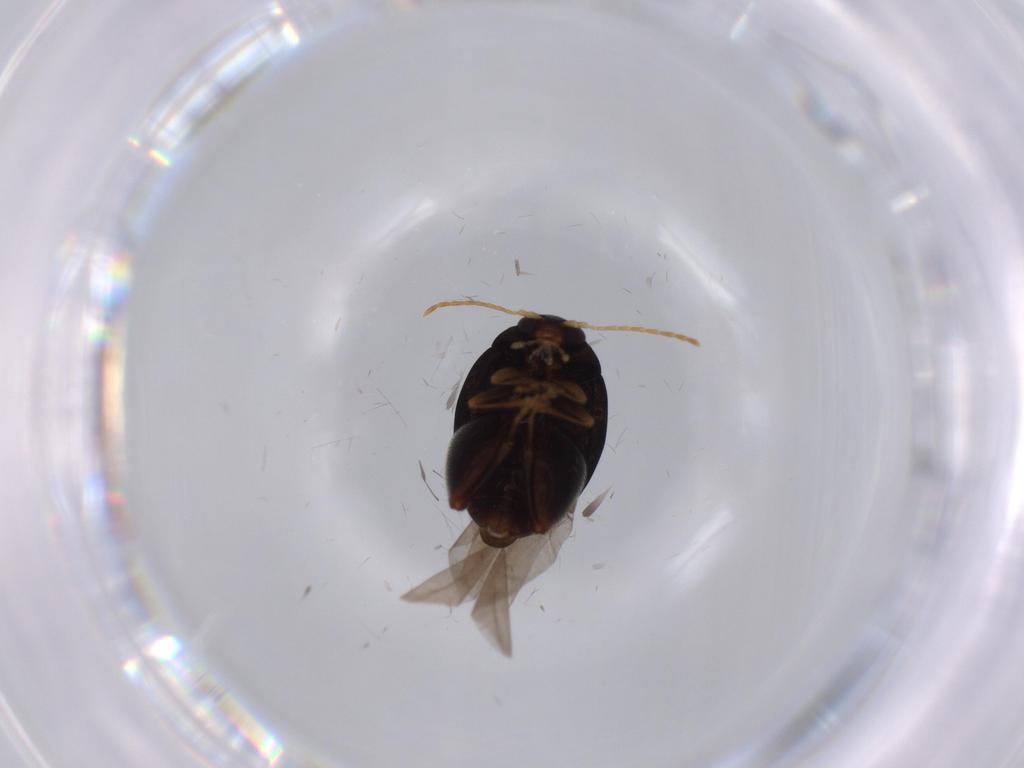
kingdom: Animalia
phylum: Arthropoda
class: Insecta
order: Coleoptera
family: Chrysomelidae
